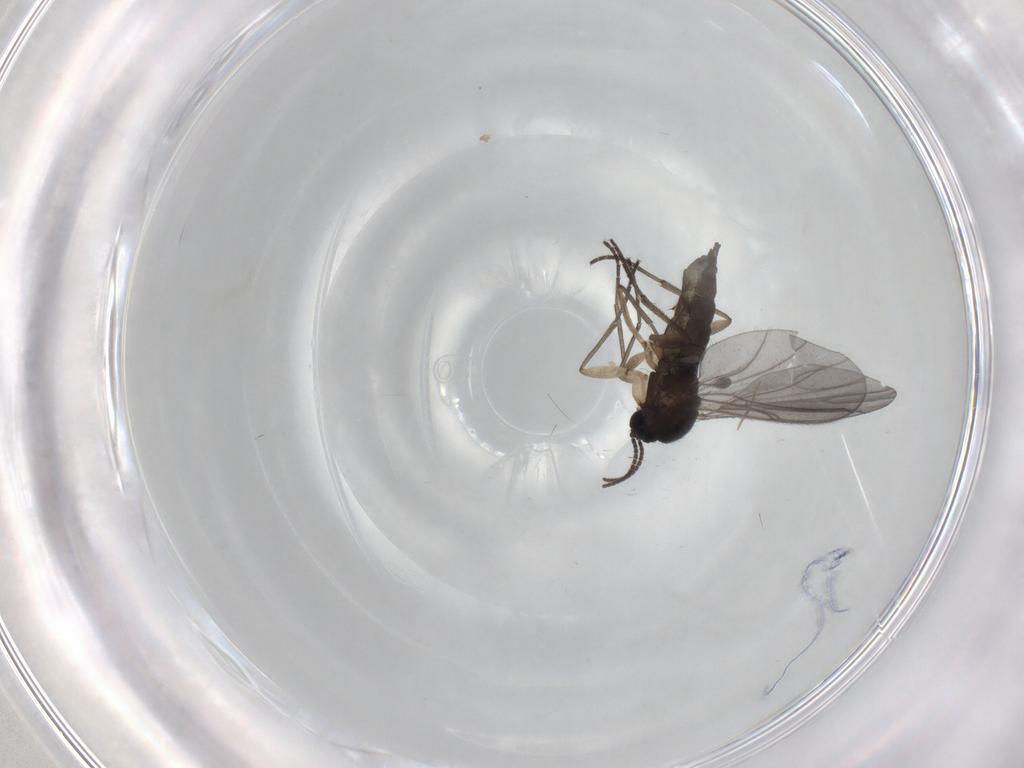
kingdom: Animalia
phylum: Arthropoda
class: Insecta
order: Diptera
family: Sciaridae
